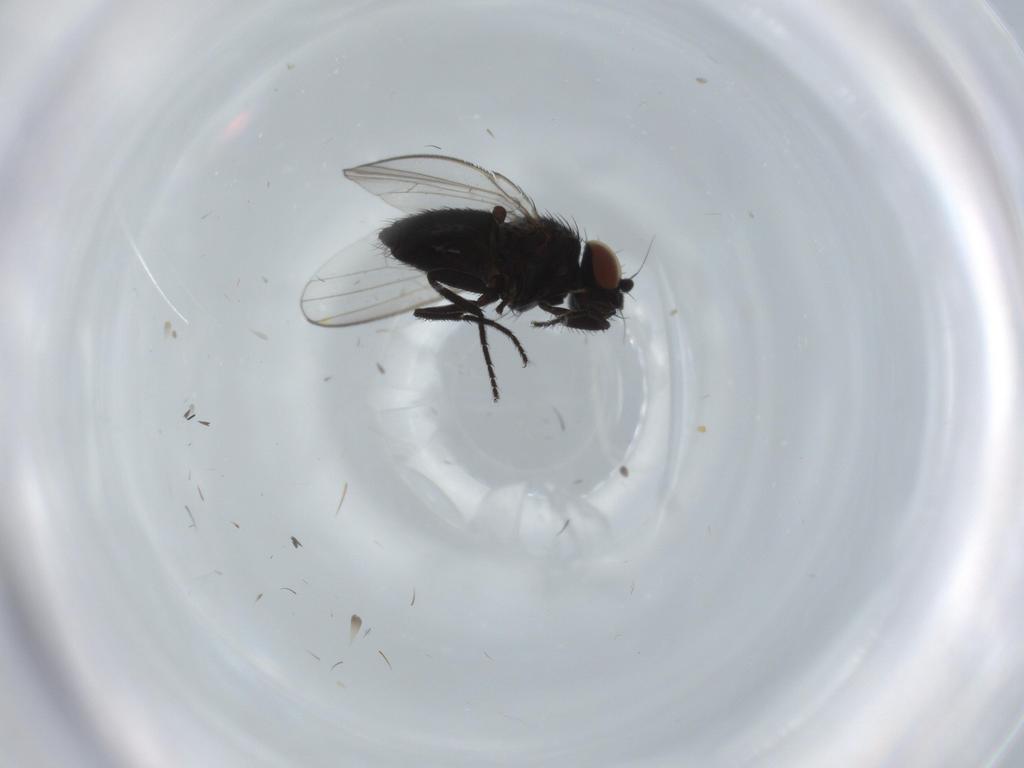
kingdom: Animalia
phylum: Arthropoda
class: Insecta
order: Diptera
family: Milichiidae
